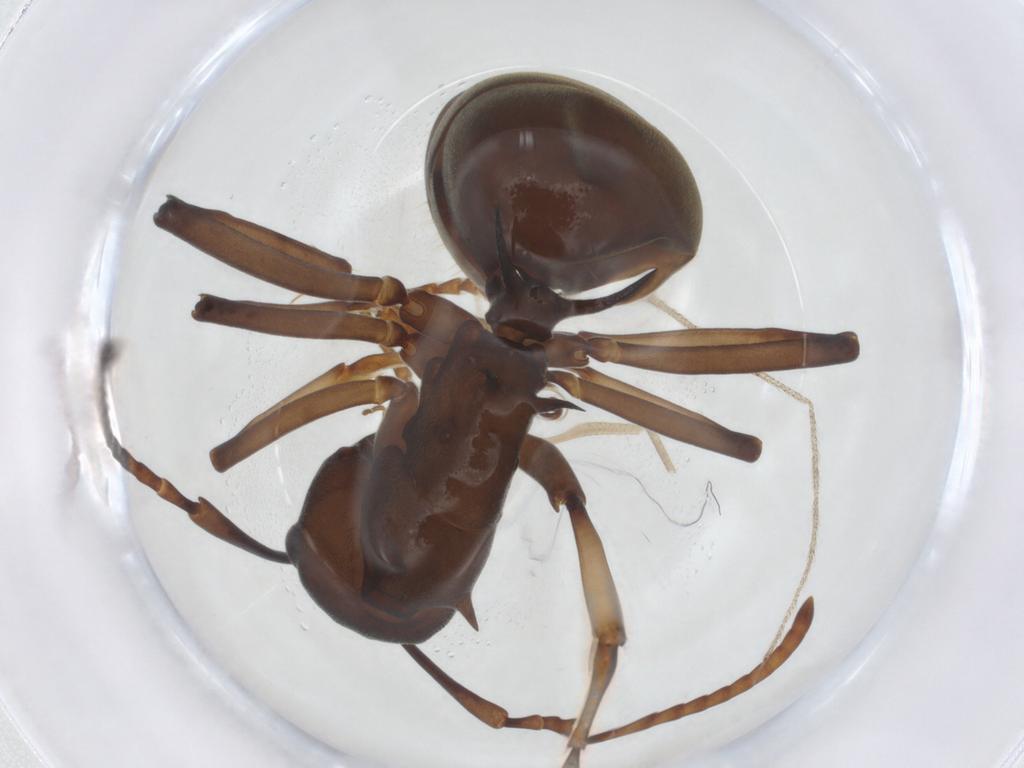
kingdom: Animalia
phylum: Arthropoda
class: Insecta
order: Hymenoptera
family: Formicidae
